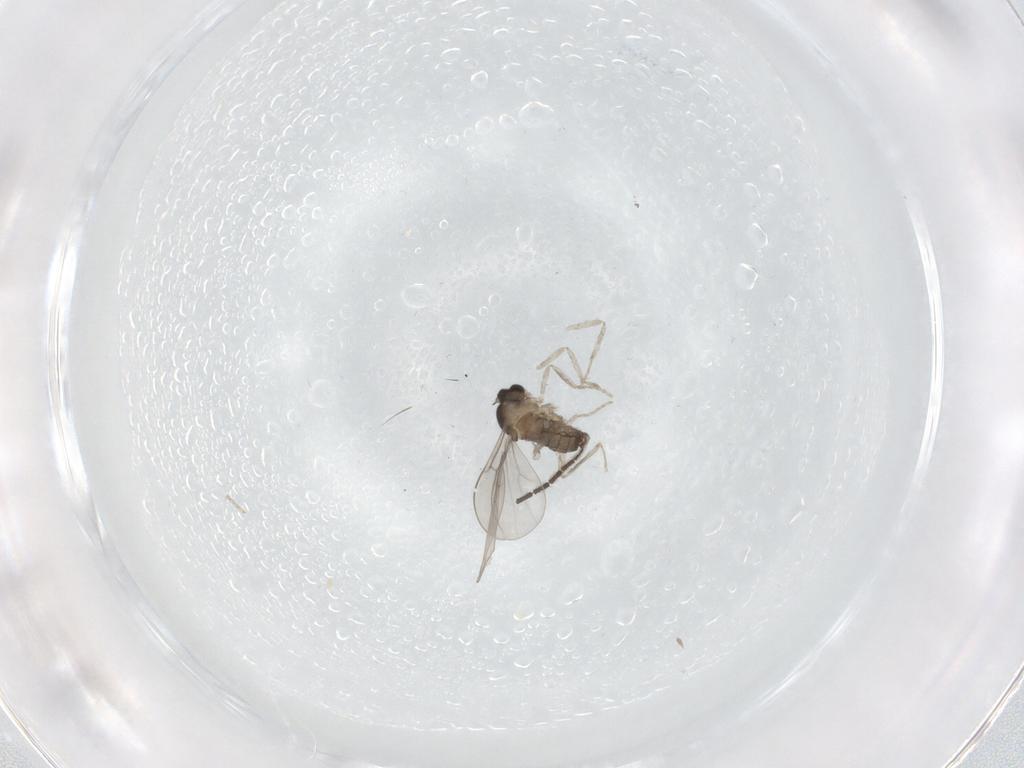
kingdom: Animalia
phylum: Arthropoda
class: Insecta
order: Diptera
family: Sciaridae
